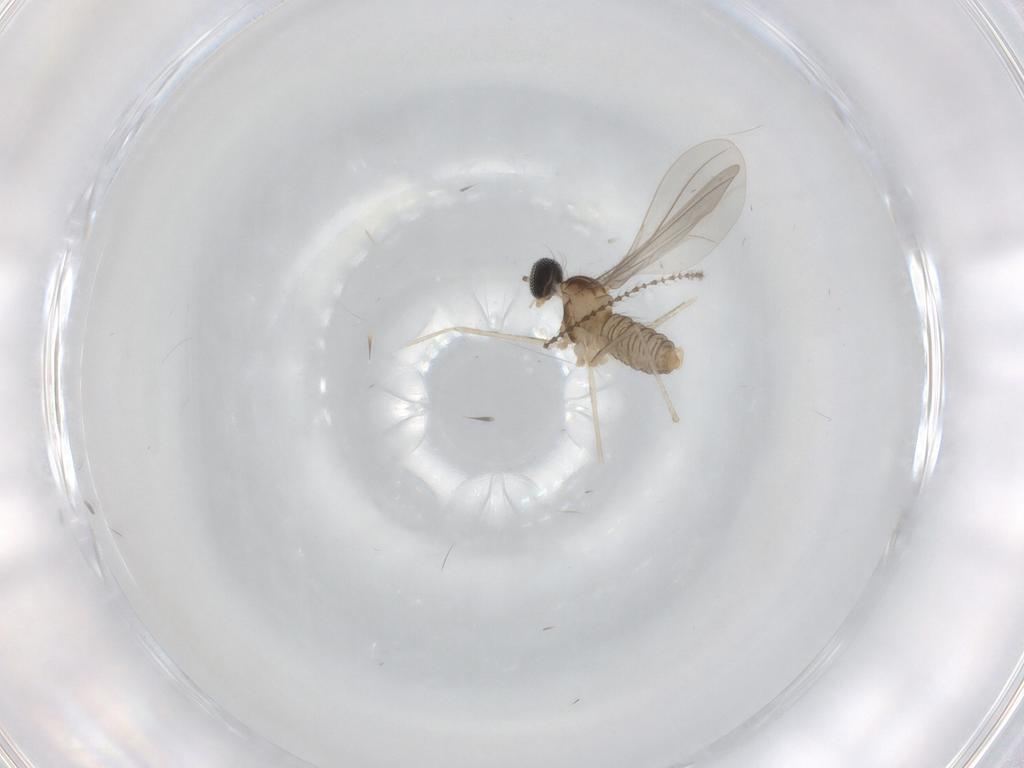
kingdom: Animalia
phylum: Arthropoda
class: Insecta
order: Diptera
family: Cecidomyiidae
